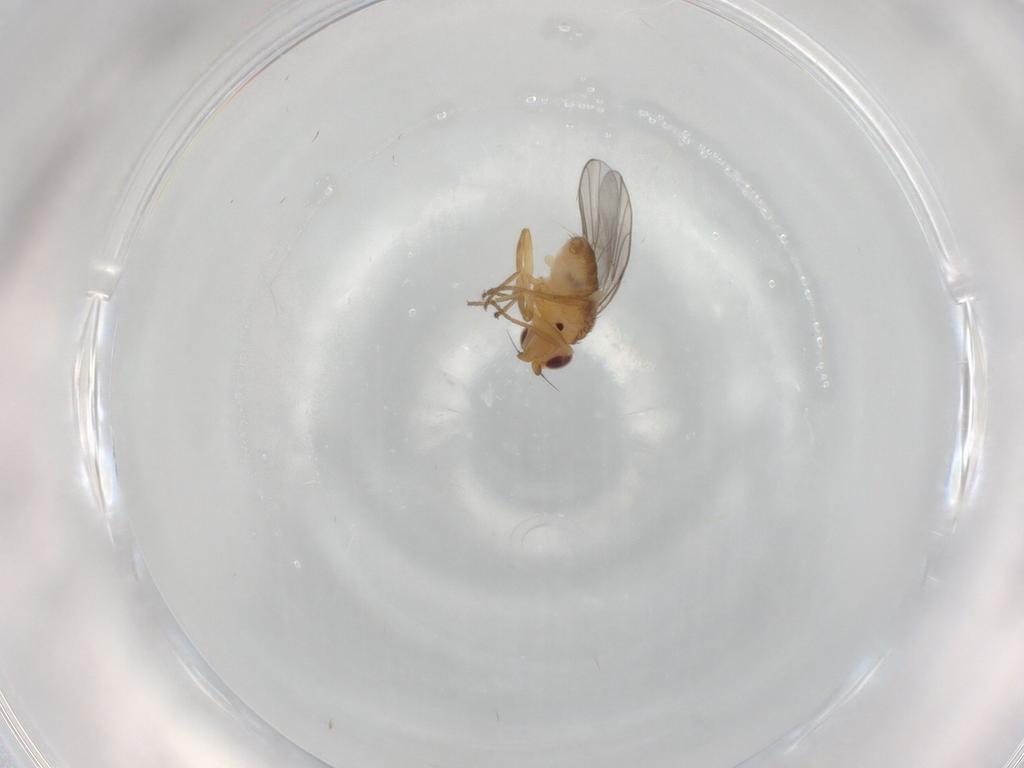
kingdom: Animalia
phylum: Arthropoda
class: Insecta
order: Diptera
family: Chloropidae
